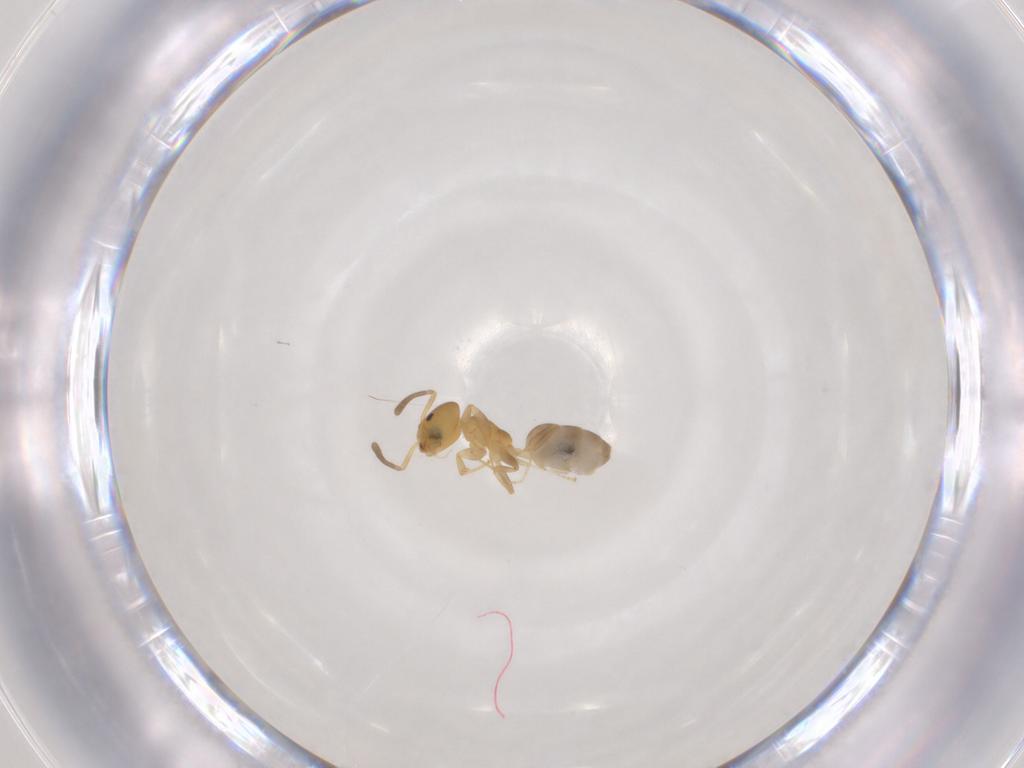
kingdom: Animalia
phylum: Arthropoda
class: Insecta
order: Hymenoptera
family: Formicidae
